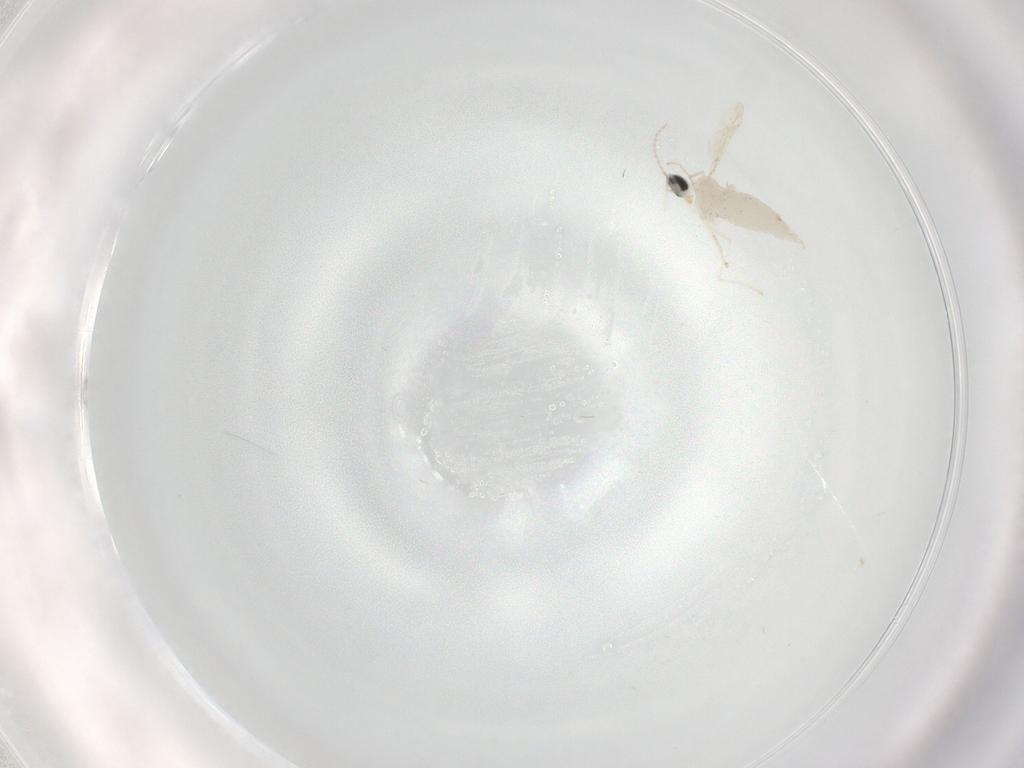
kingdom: Animalia
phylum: Arthropoda
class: Insecta
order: Diptera
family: Cecidomyiidae
